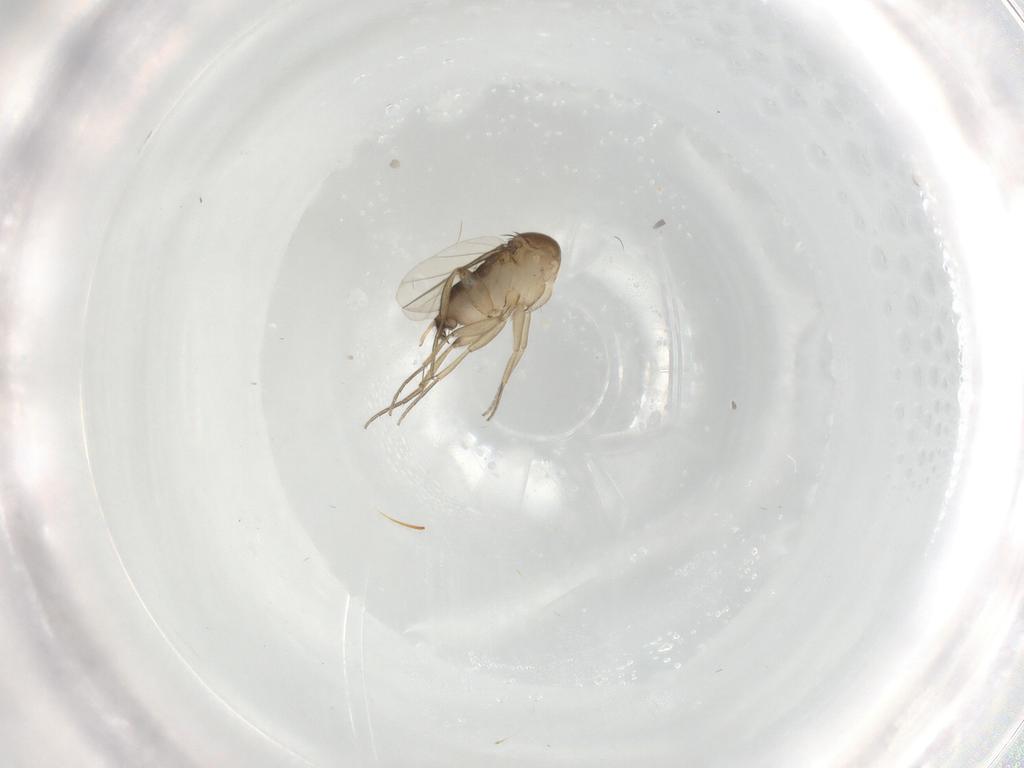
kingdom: Animalia
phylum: Arthropoda
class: Insecta
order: Diptera
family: Phoridae
